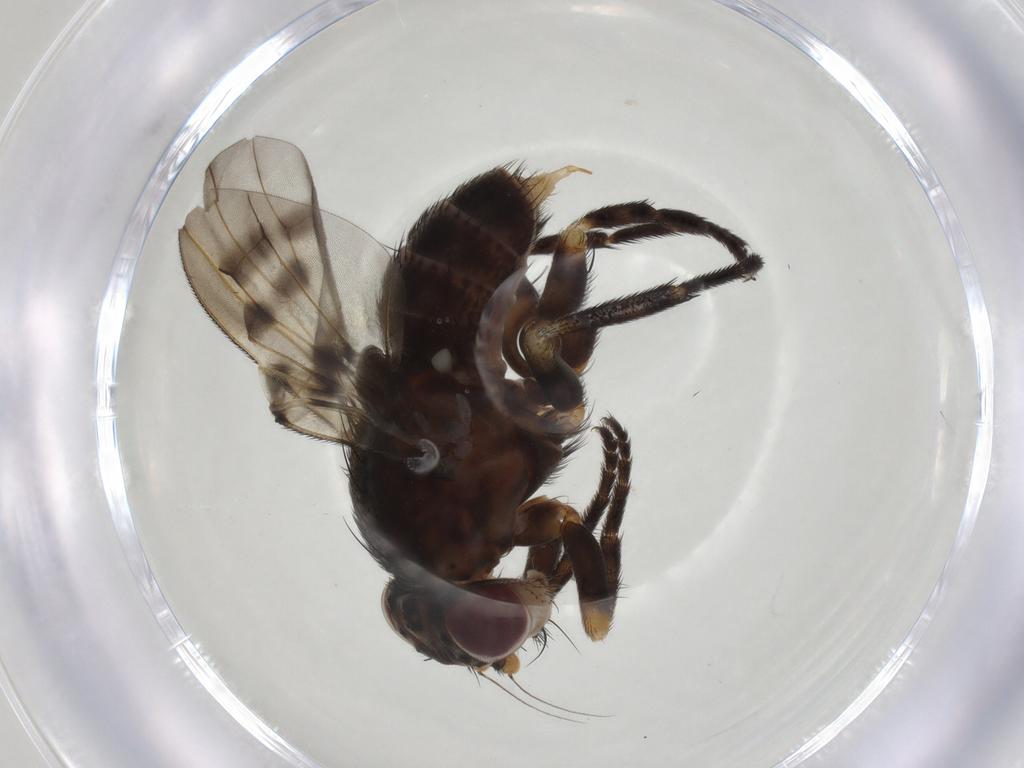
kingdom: Animalia
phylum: Arthropoda
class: Insecta
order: Diptera
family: Odiniidae
